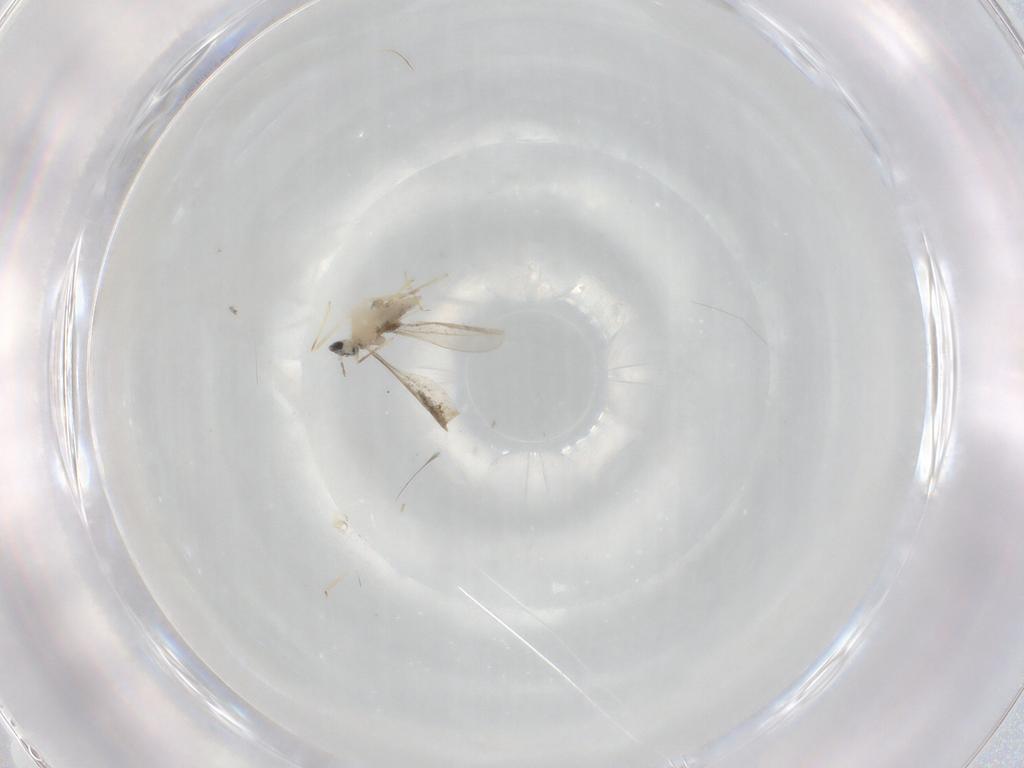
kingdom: Animalia
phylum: Arthropoda
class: Insecta
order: Diptera
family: Cecidomyiidae
